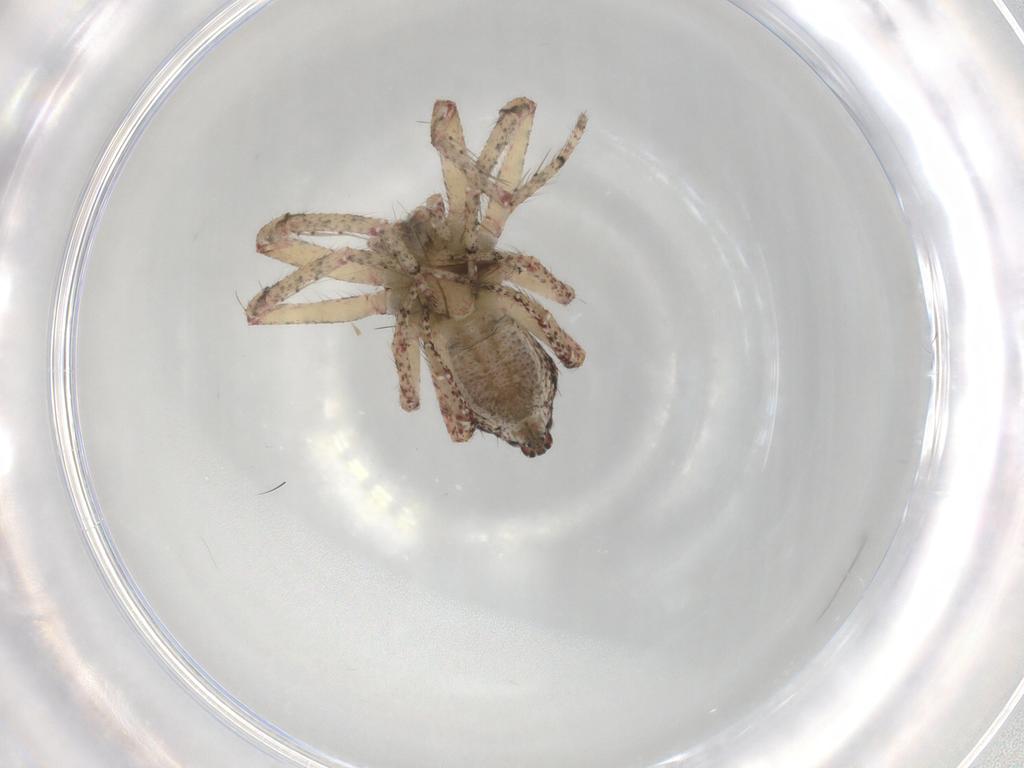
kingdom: Animalia
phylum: Arthropoda
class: Arachnida
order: Araneae
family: Thomisidae
